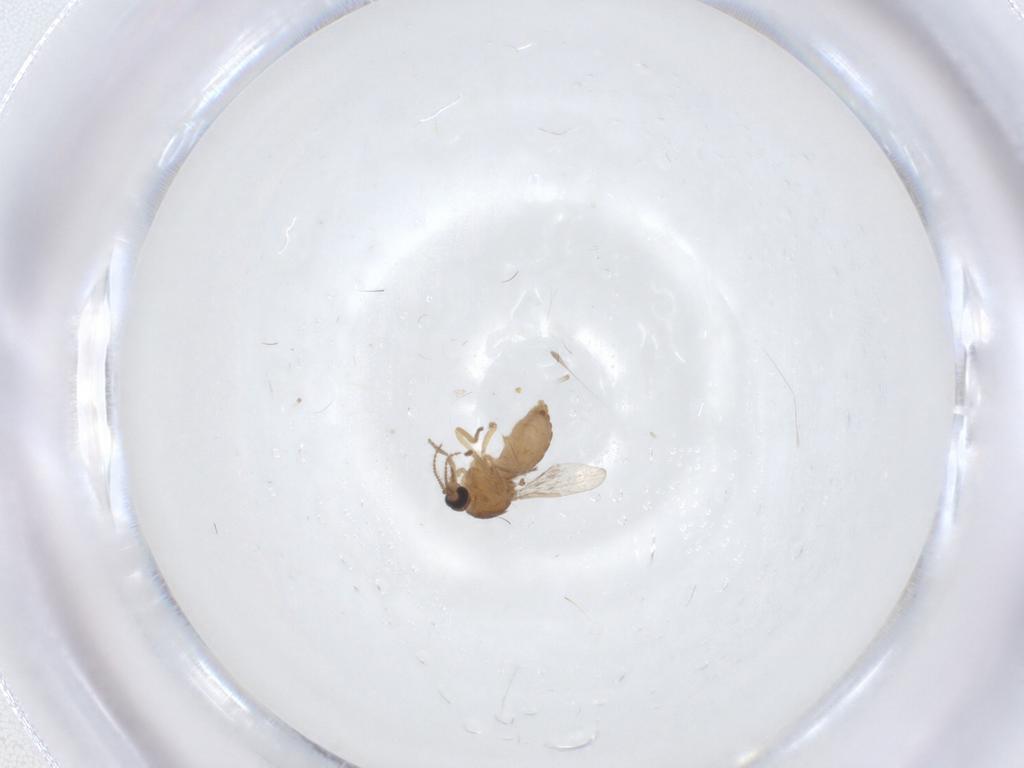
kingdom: Animalia
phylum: Arthropoda
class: Insecta
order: Diptera
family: Ceratopogonidae
